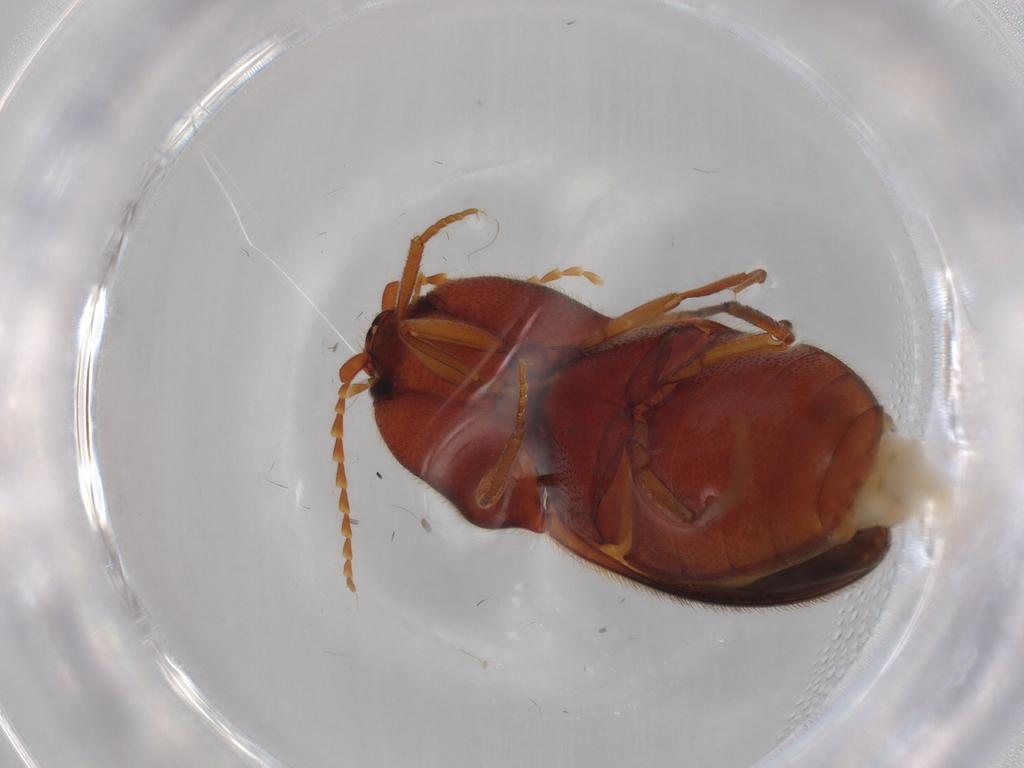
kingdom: Animalia
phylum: Arthropoda
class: Insecta
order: Coleoptera
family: Elateridae
